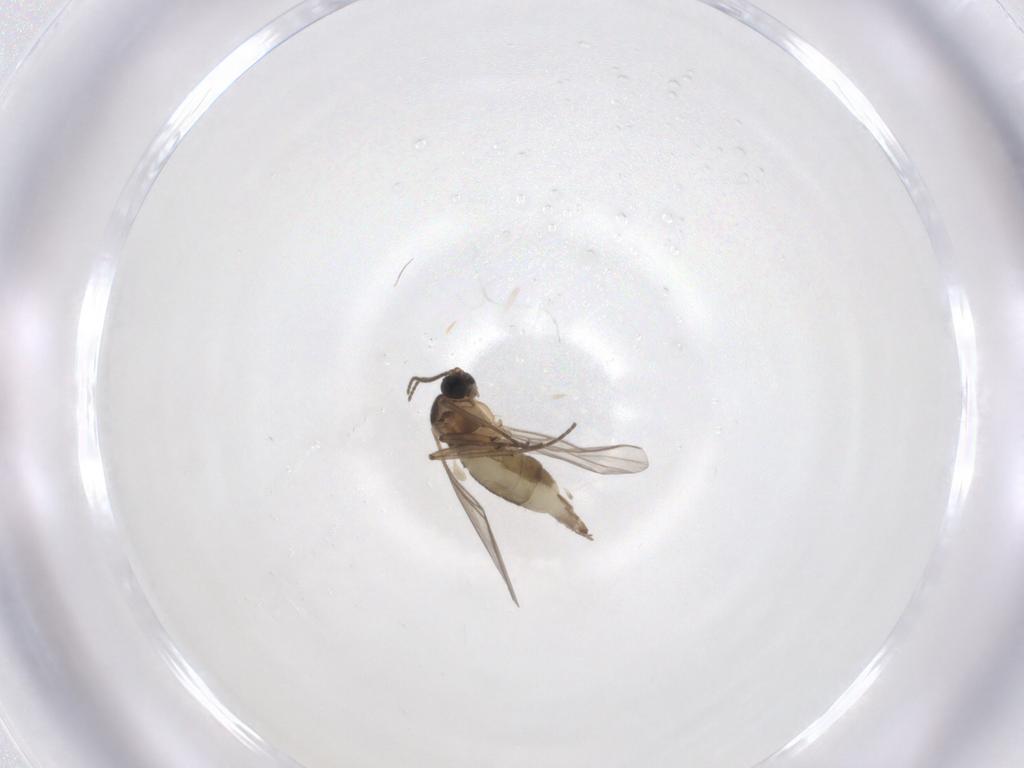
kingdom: Animalia
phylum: Arthropoda
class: Insecta
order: Diptera
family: Sciaridae
